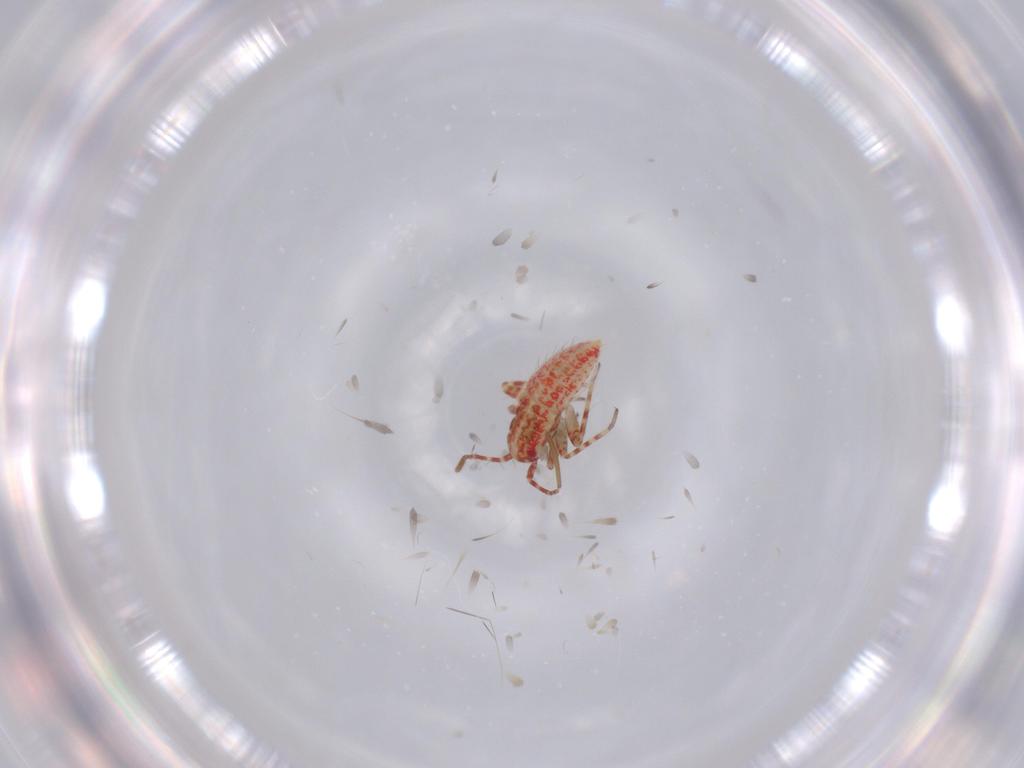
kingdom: Animalia
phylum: Arthropoda
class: Insecta
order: Hemiptera
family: Miridae
